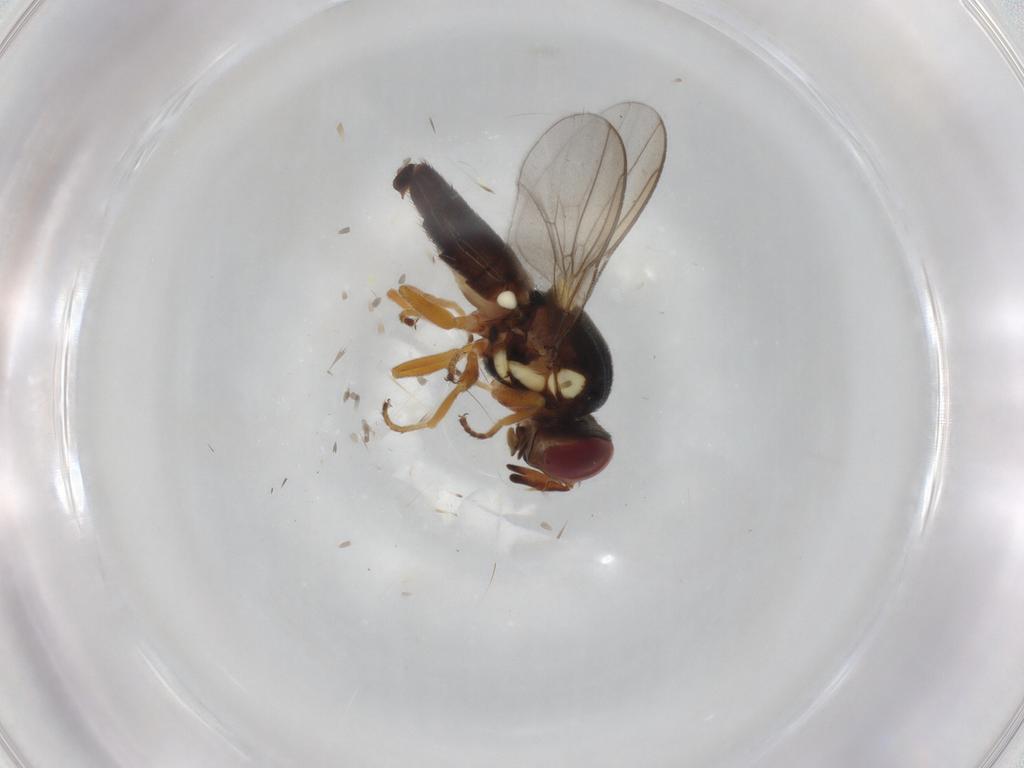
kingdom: Animalia
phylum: Arthropoda
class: Insecta
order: Diptera
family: Chloropidae
